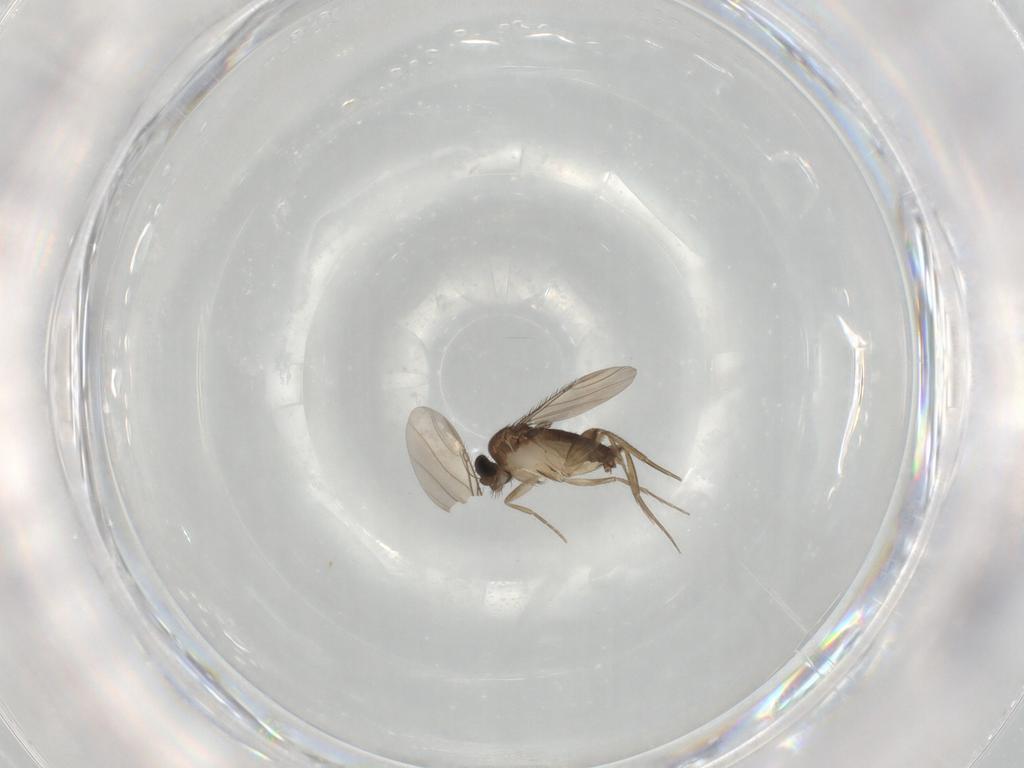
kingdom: Animalia
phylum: Arthropoda
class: Insecta
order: Diptera
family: Phoridae
